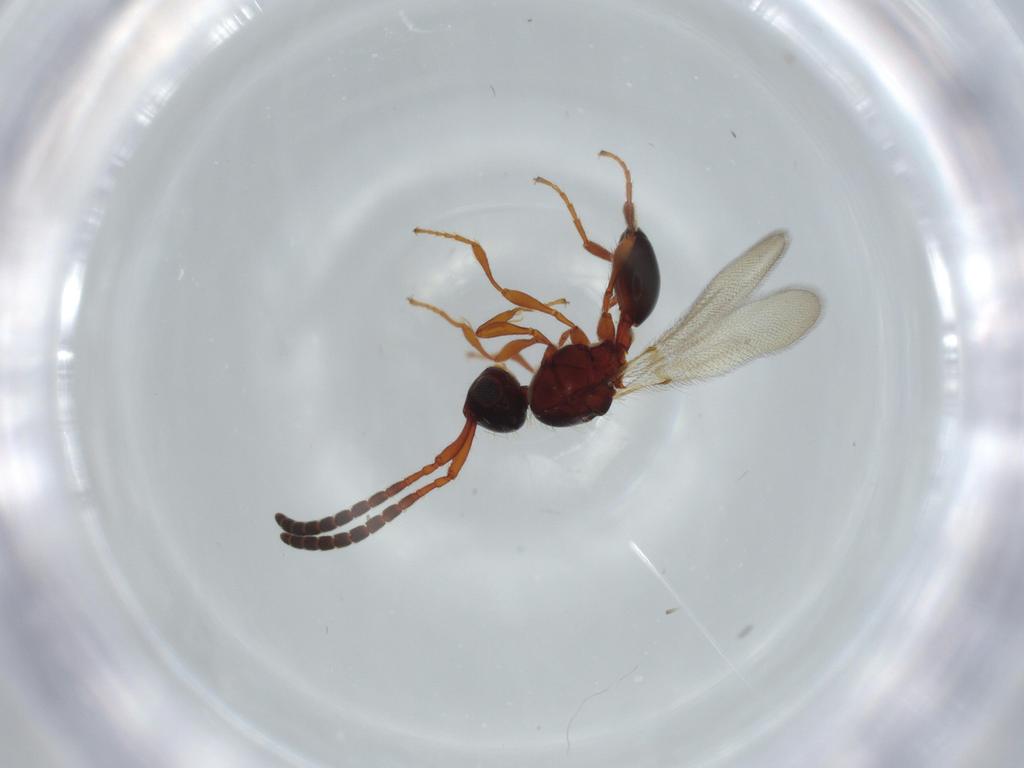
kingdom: Animalia
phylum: Arthropoda
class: Insecta
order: Hymenoptera
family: Diapriidae
